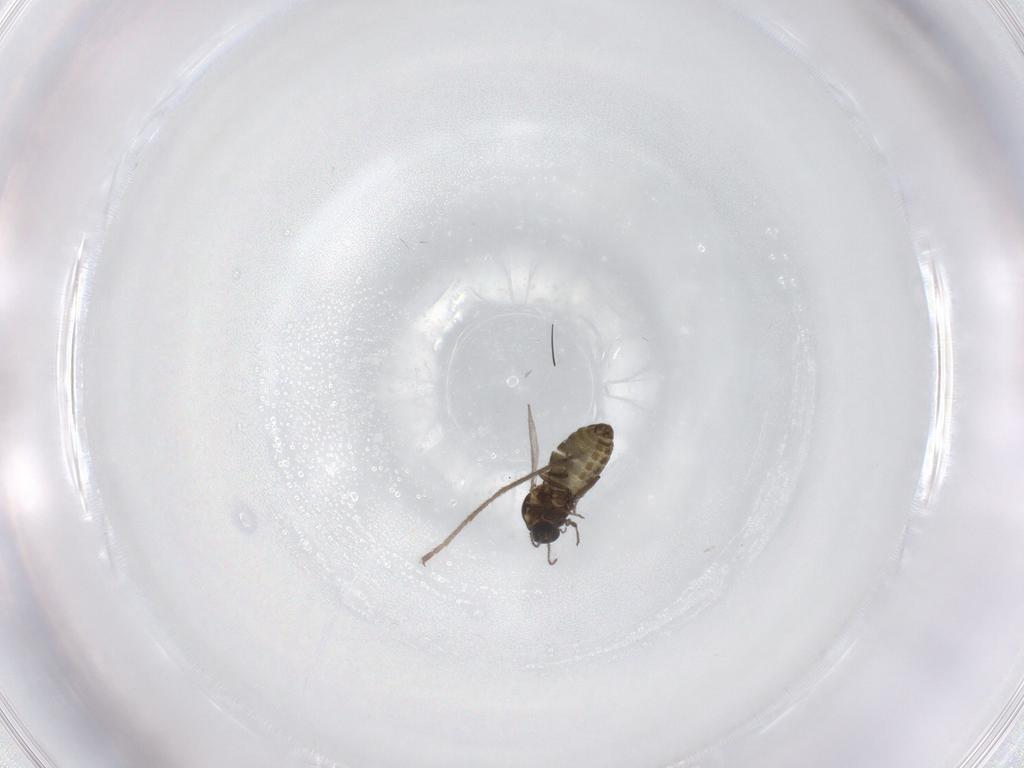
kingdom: Animalia
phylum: Arthropoda
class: Insecta
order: Diptera
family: Limoniidae
